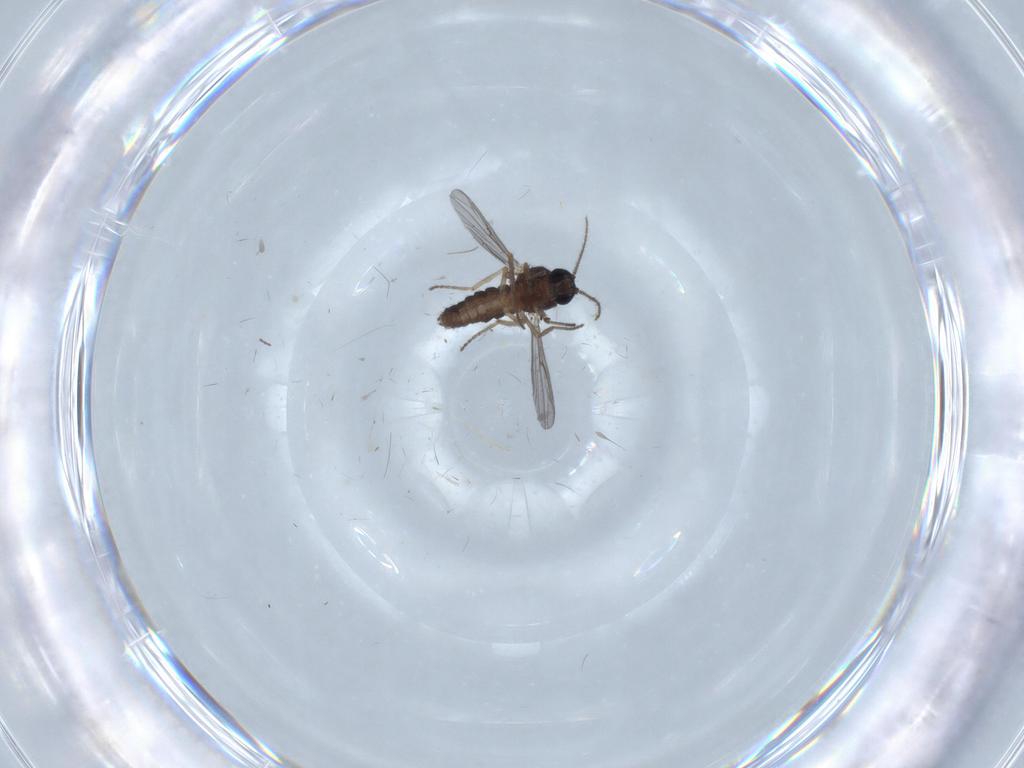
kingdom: Animalia
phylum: Arthropoda
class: Insecta
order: Diptera
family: Ceratopogonidae
